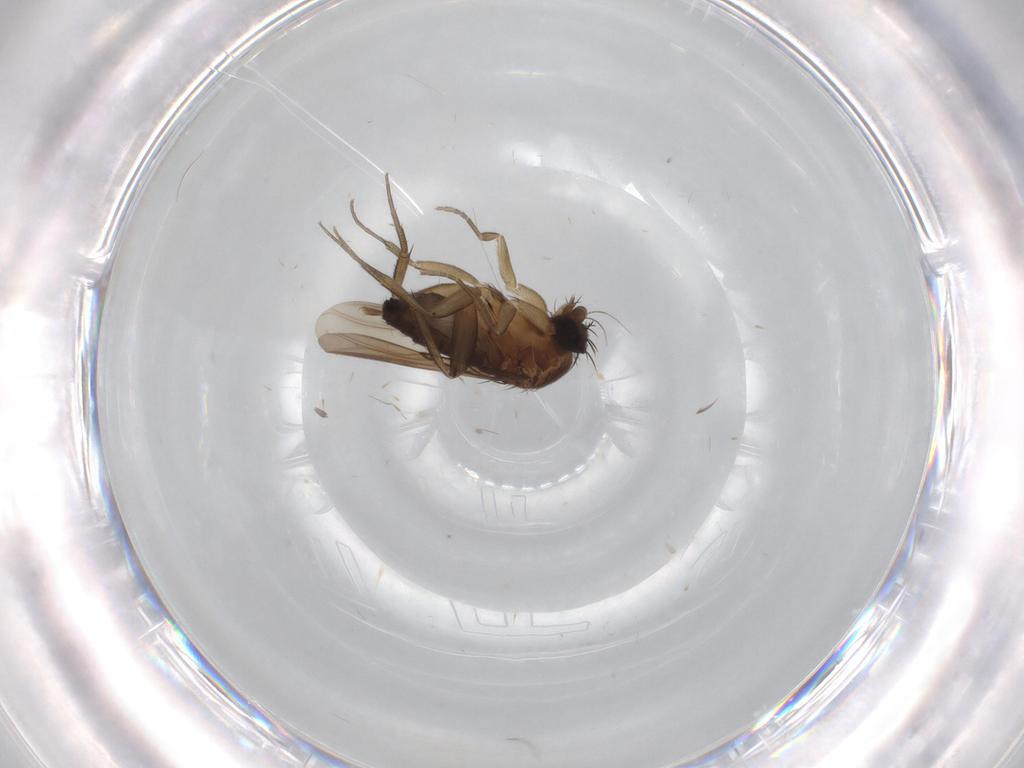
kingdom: Animalia
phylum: Arthropoda
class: Insecta
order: Diptera
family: Phoridae
